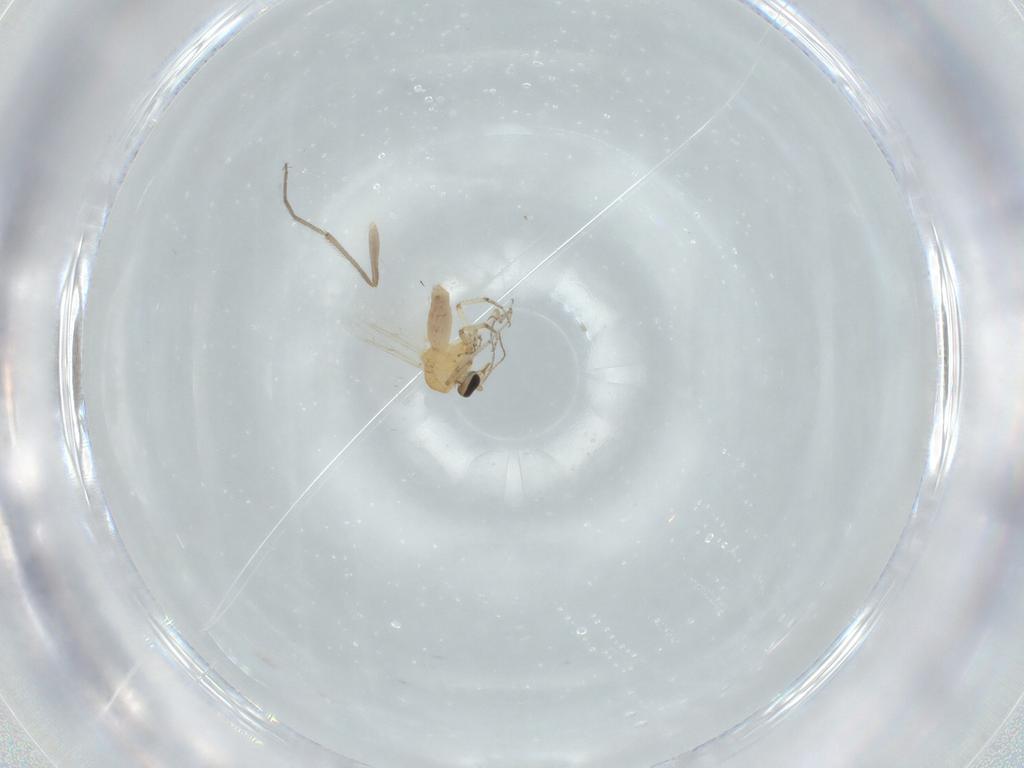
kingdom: Animalia
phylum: Arthropoda
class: Insecta
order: Diptera
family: Ceratopogonidae
